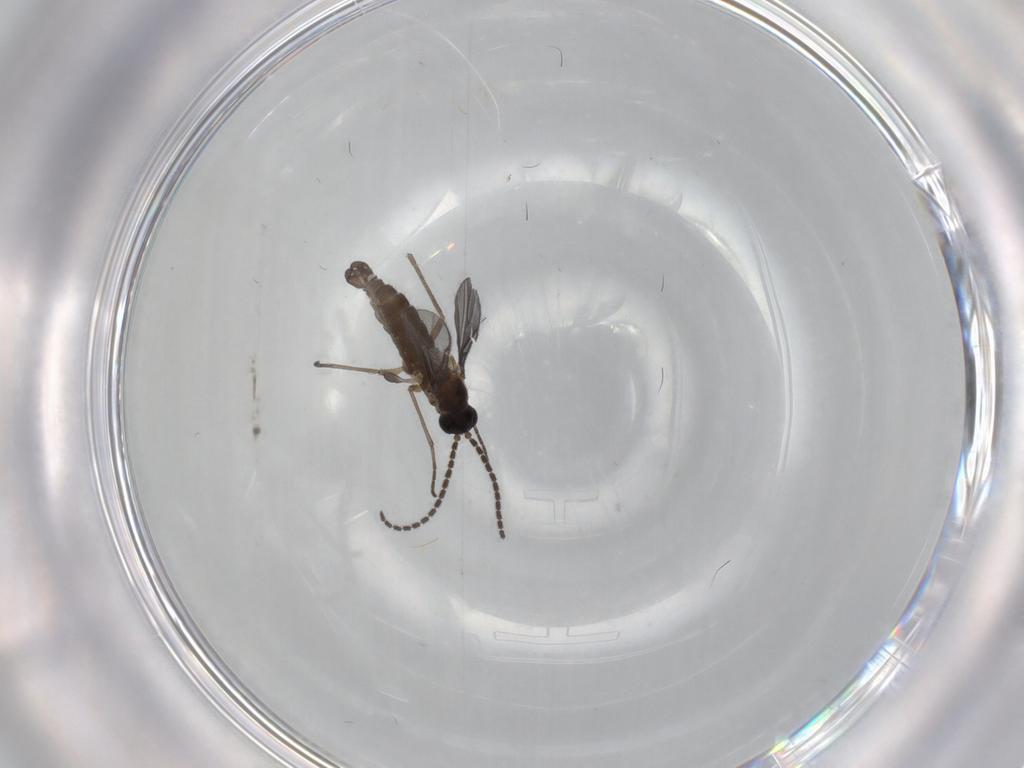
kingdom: Animalia
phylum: Arthropoda
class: Insecta
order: Diptera
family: Sciaridae
